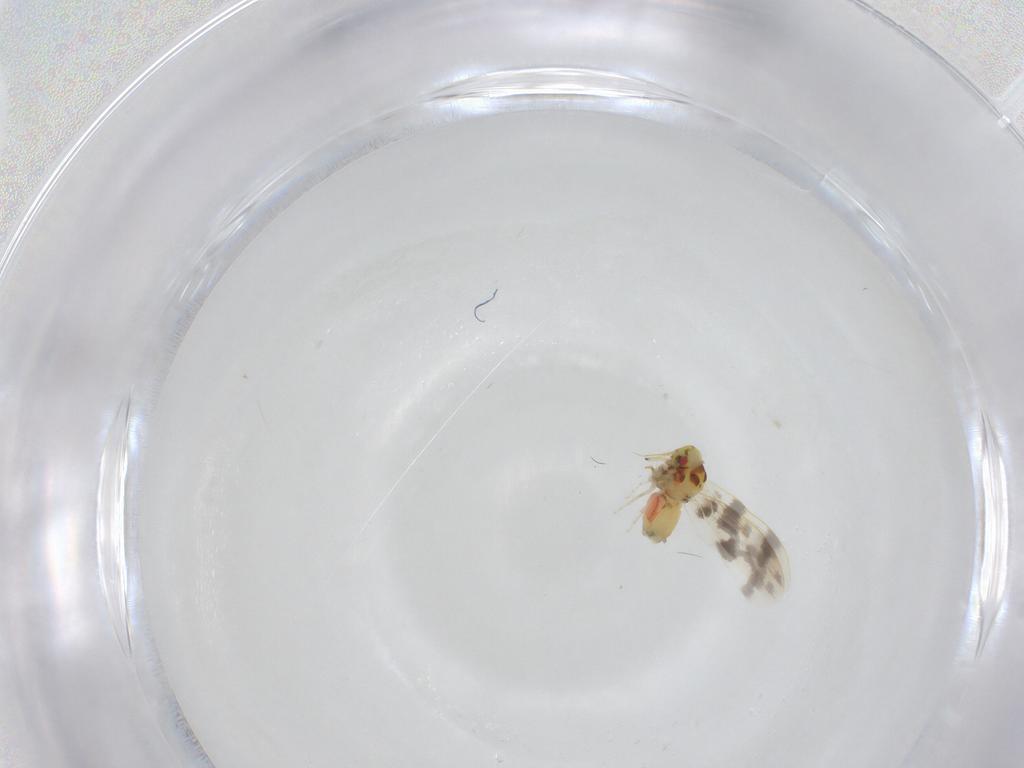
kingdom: Animalia
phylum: Arthropoda
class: Insecta
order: Hemiptera
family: Aleyrodidae
